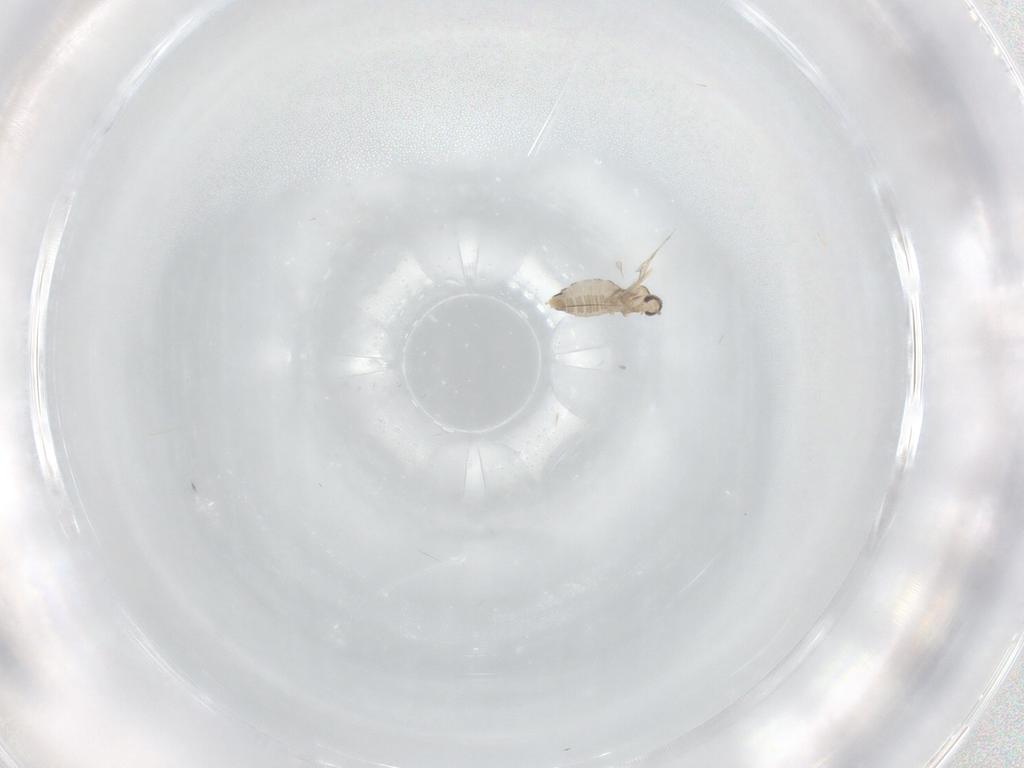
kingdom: Animalia
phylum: Arthropoda
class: Insecta
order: Diptera
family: Cecidomyiidae
